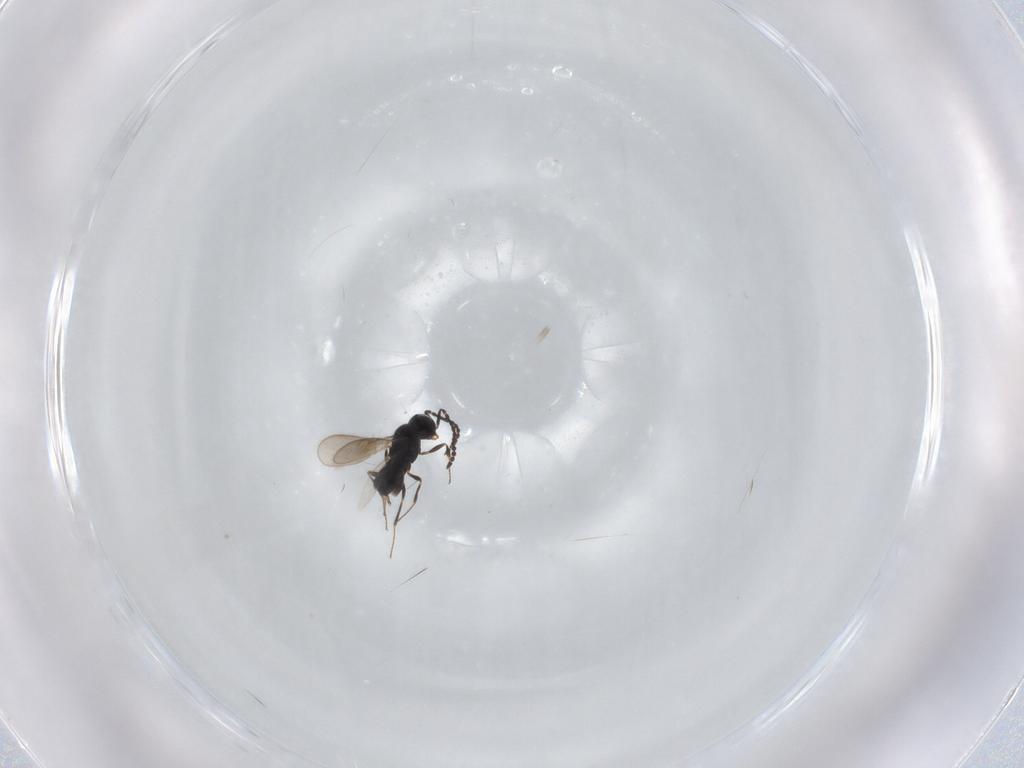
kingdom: Animalia
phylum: Arthropoda
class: Insecta
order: Hymenoptera
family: Scelionidae
